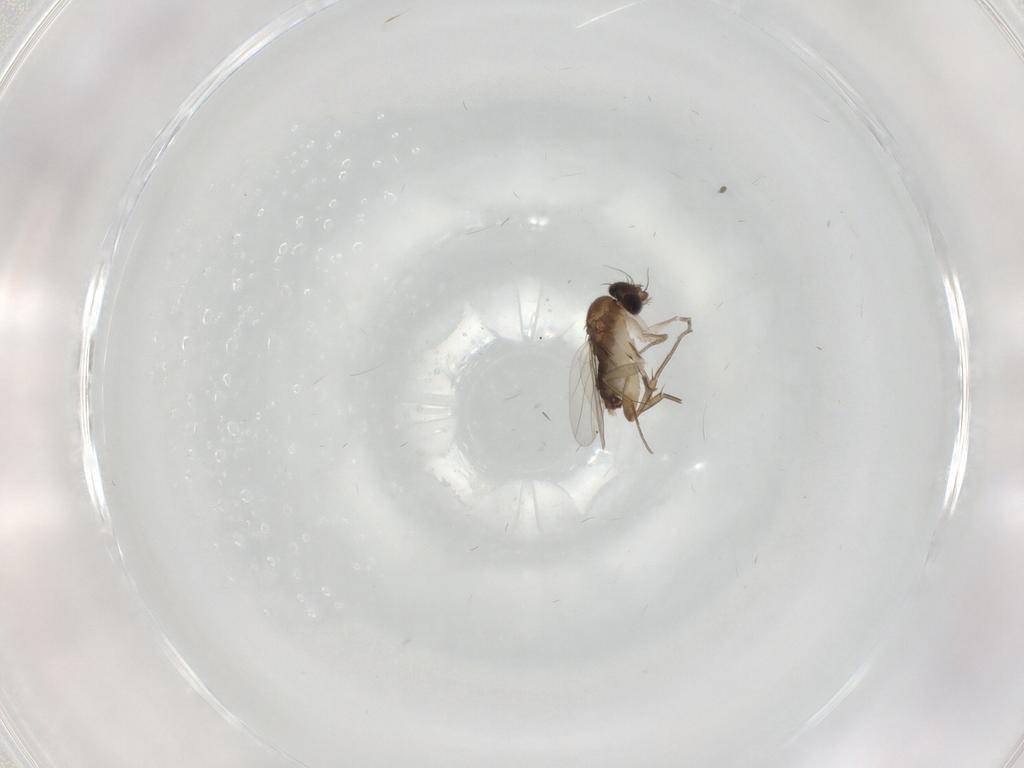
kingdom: Animalia
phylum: Arthropoda
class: Insecta
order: Diptera
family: Phoridae
